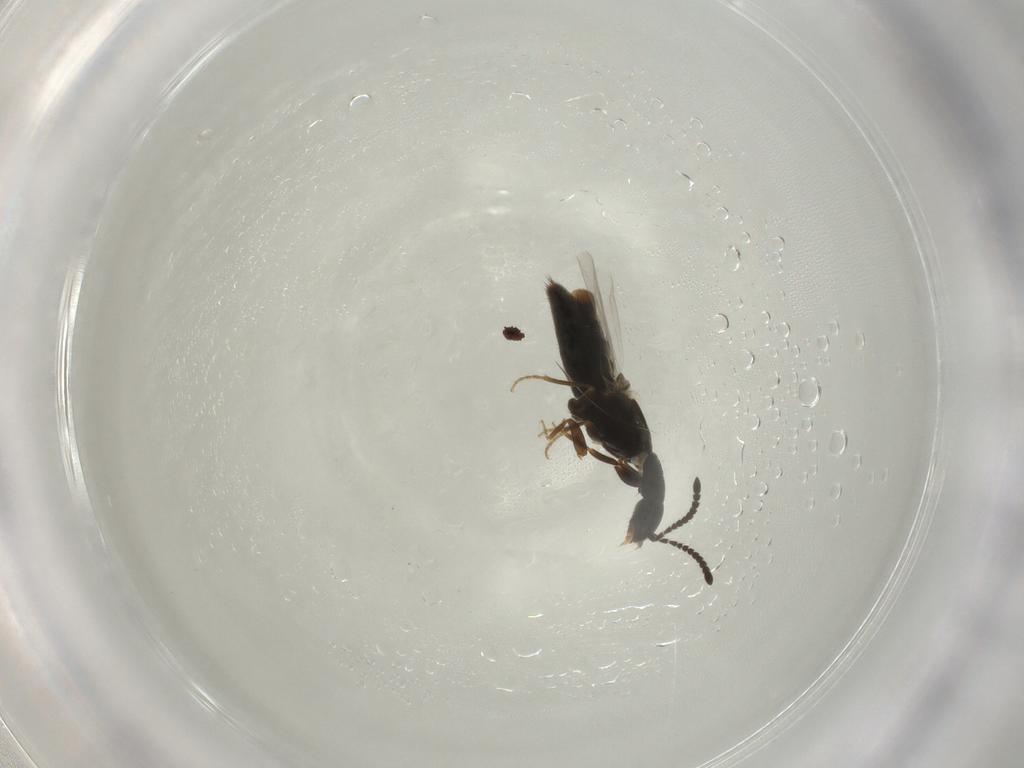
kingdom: Animalia
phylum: Arthropoda
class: Insecta
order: Coleoptera
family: Staphylinidae
